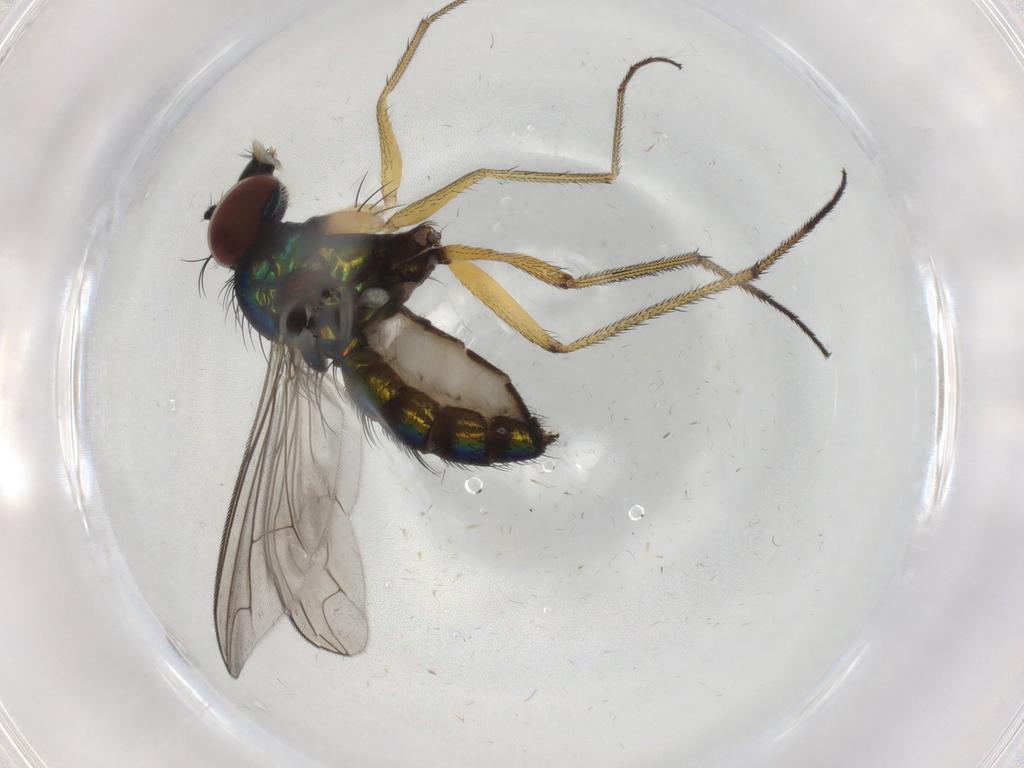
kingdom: Animalia
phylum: Arthropoda
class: Insecta
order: Diptera
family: Dolichopodidae
